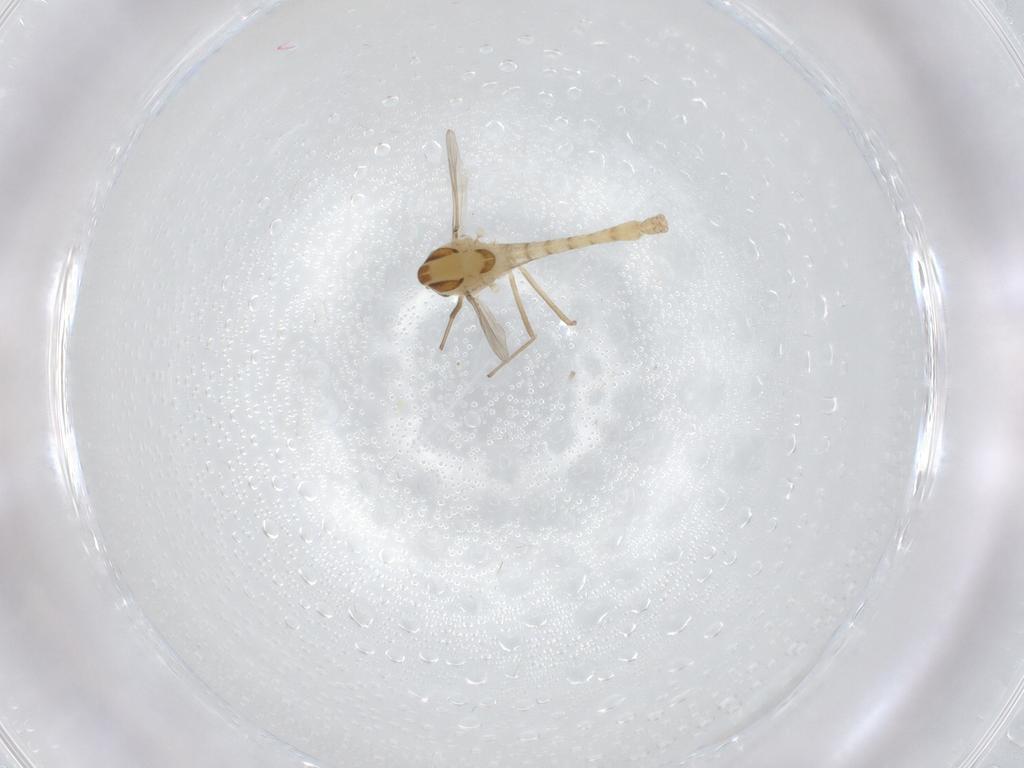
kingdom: Animalia
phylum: Arthropoda
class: Insecta
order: Diptera
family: Chironomidae
